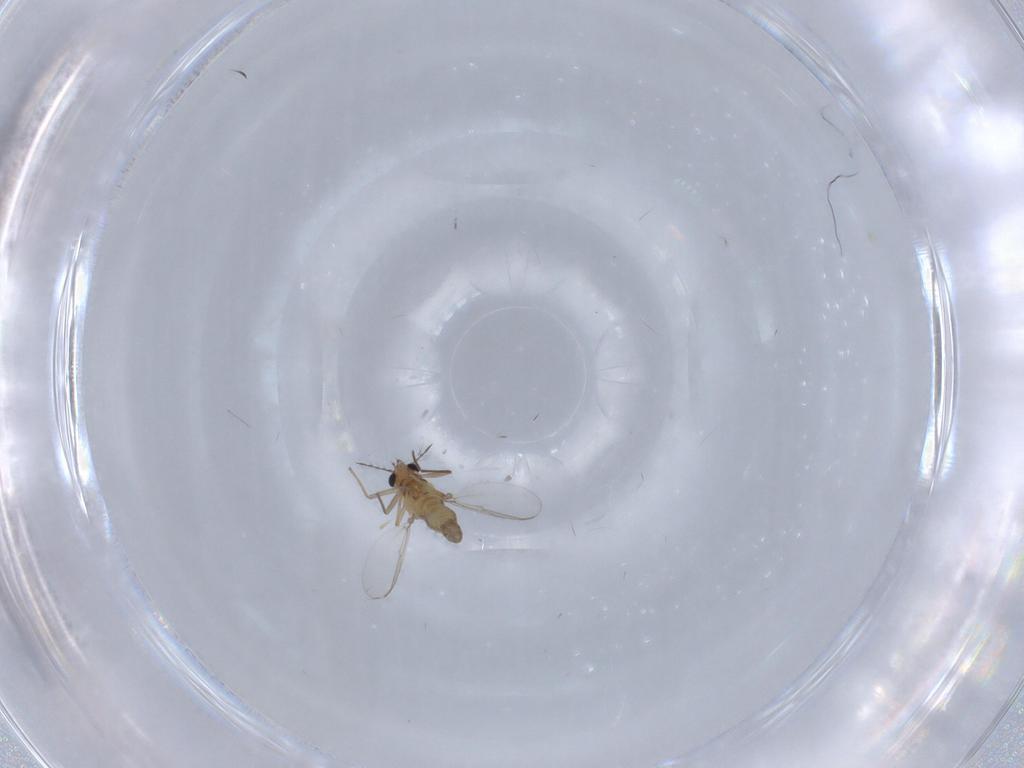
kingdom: Animalia
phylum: Arthropoda
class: Insecta
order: Diptera
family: Chironomidae
